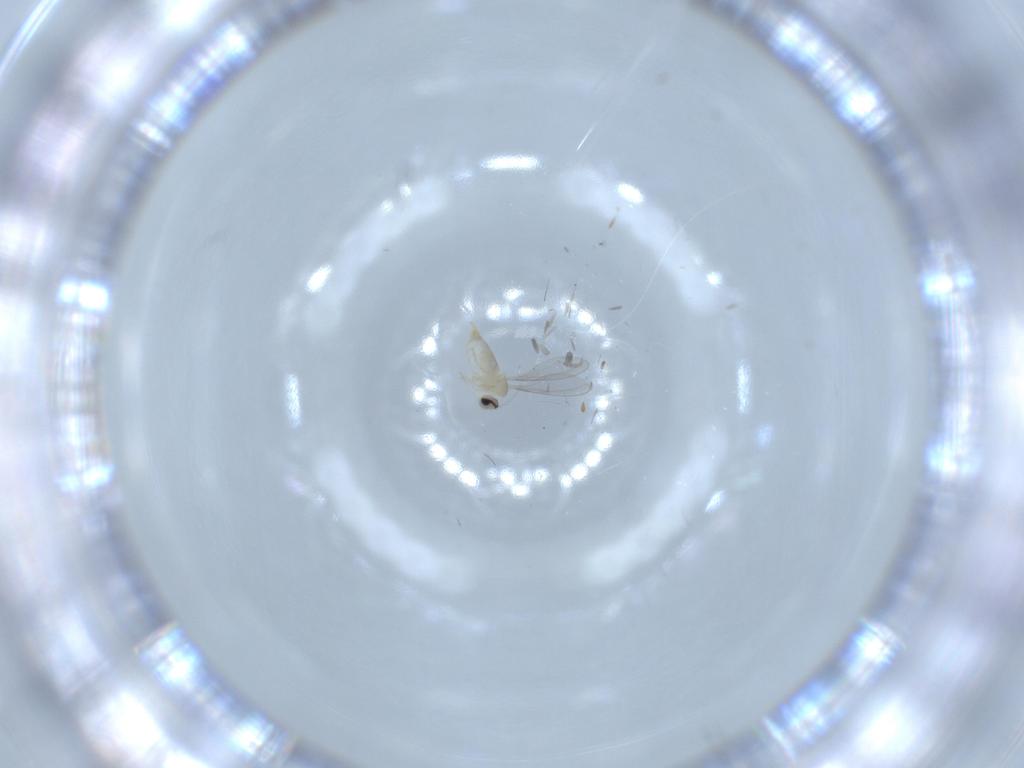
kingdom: Animalia
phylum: Arthropoda
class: Insecta
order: Diptera
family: Cecidomyiidae
